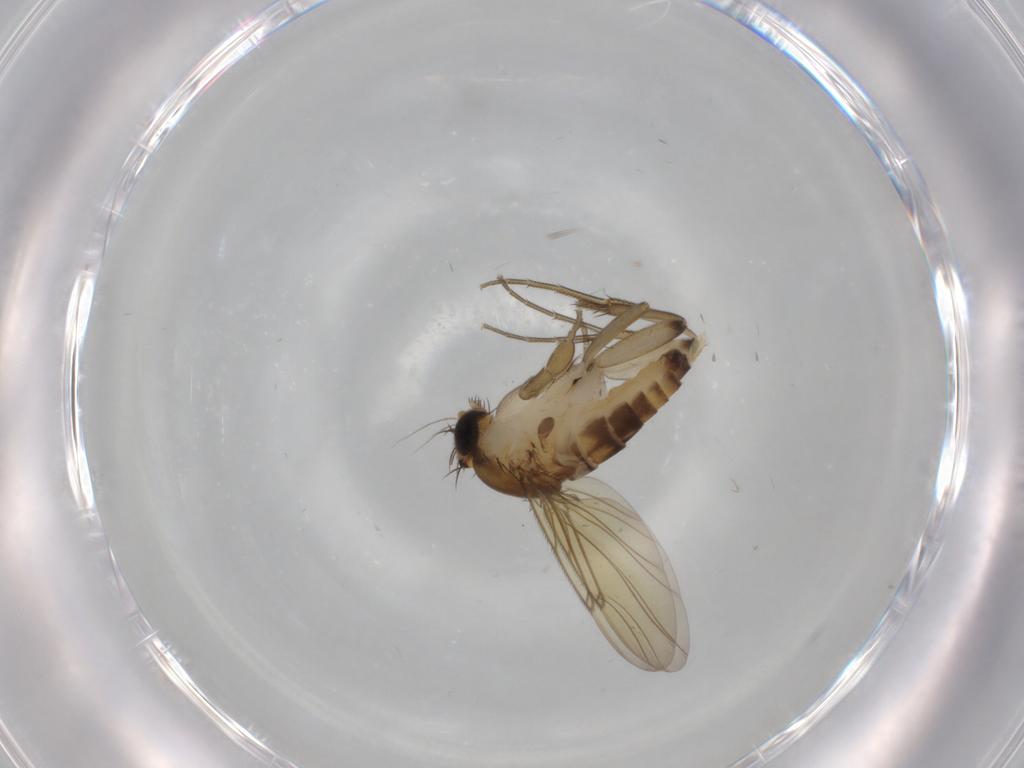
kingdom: Animalia
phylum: Arthropoda
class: Insecta
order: Diptera
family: Phoridae
